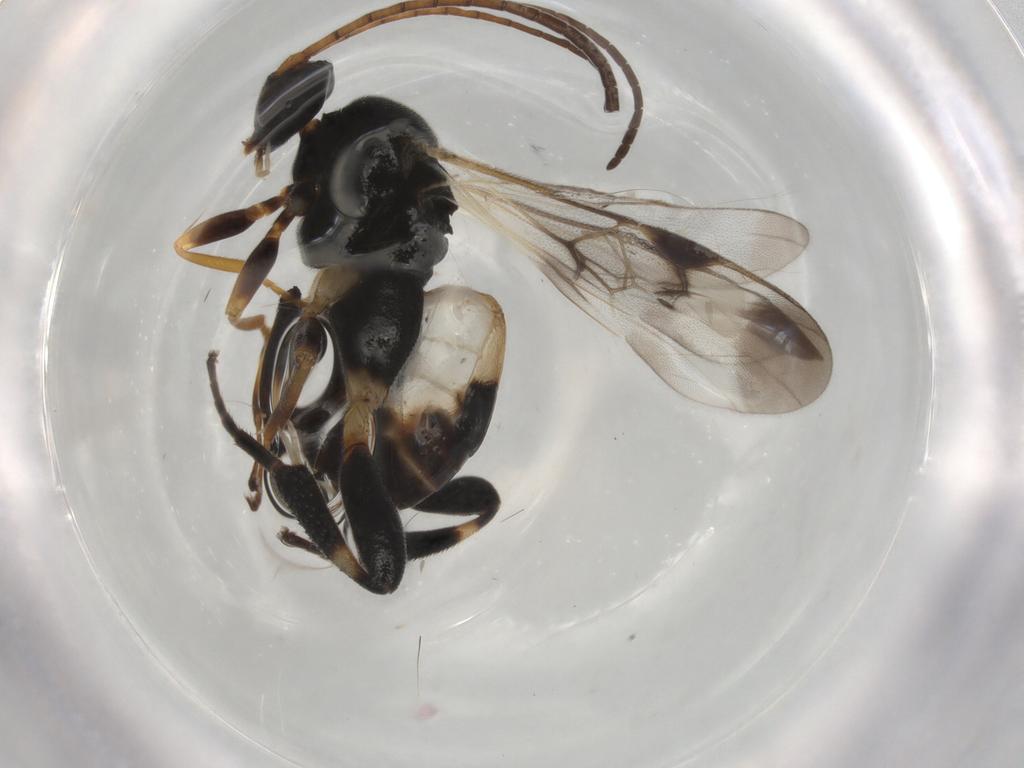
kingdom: Animalia
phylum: Arthropoda
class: Insecta
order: Hymenoptera
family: Braconidae
